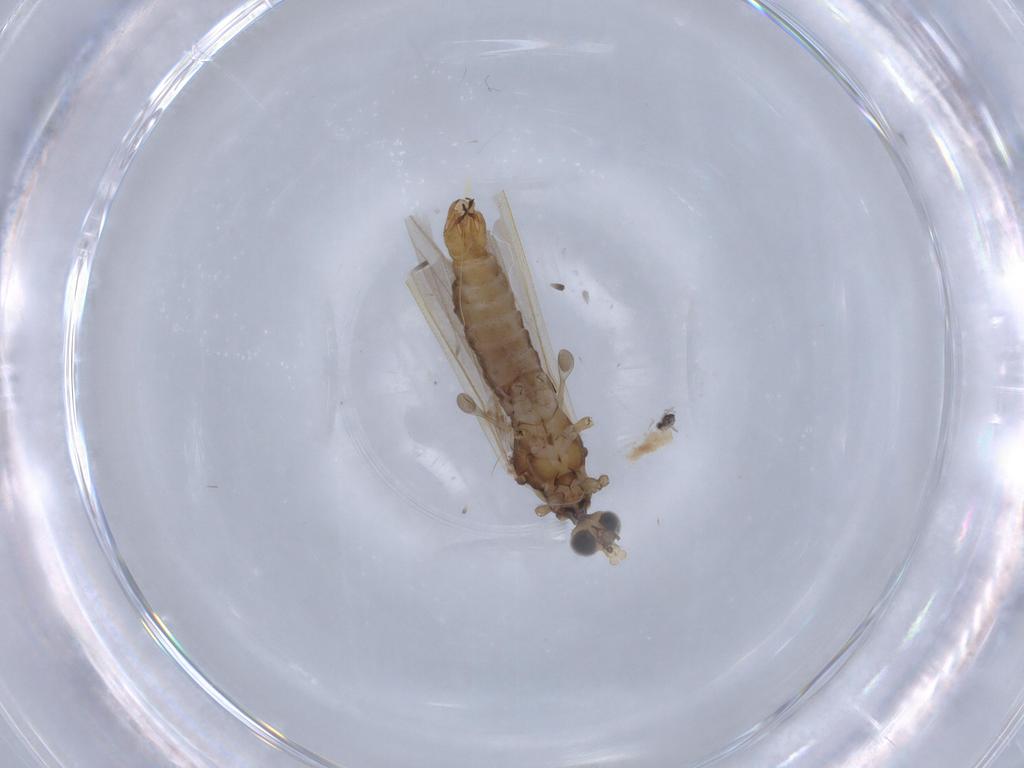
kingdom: Animalia
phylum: Arthropoda
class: Insecta
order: Diptera
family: Limoniidae
